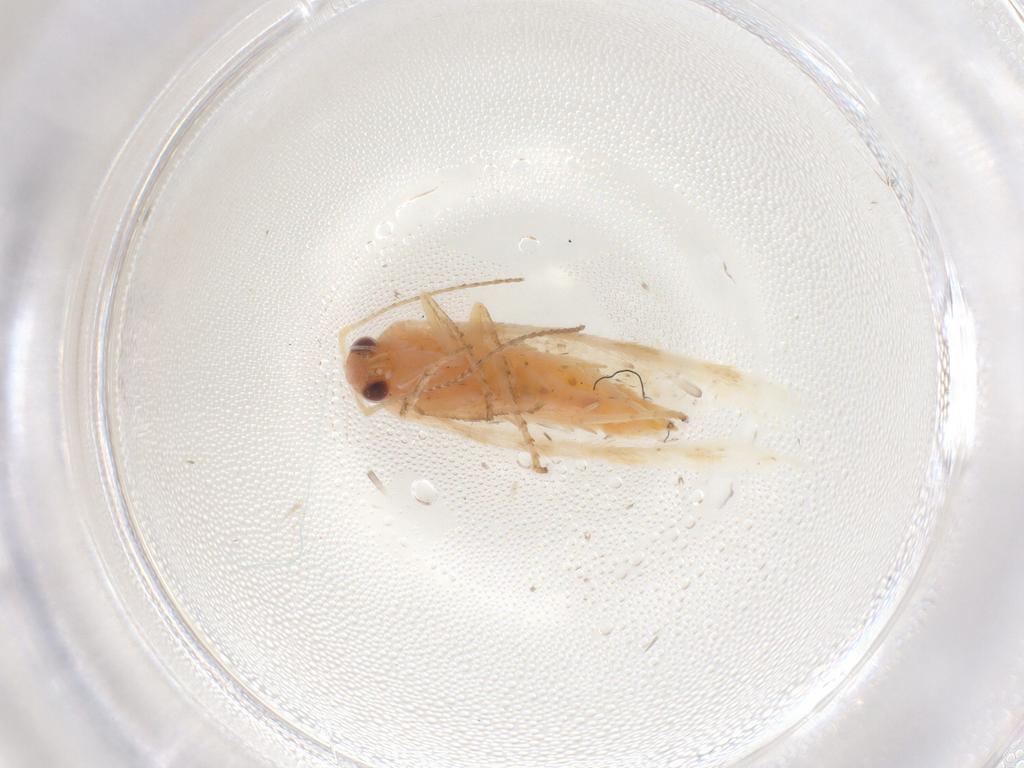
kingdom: Animalia
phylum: Arthropoda
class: Insecta
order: Lepidoptera
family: Argyresthiidae
